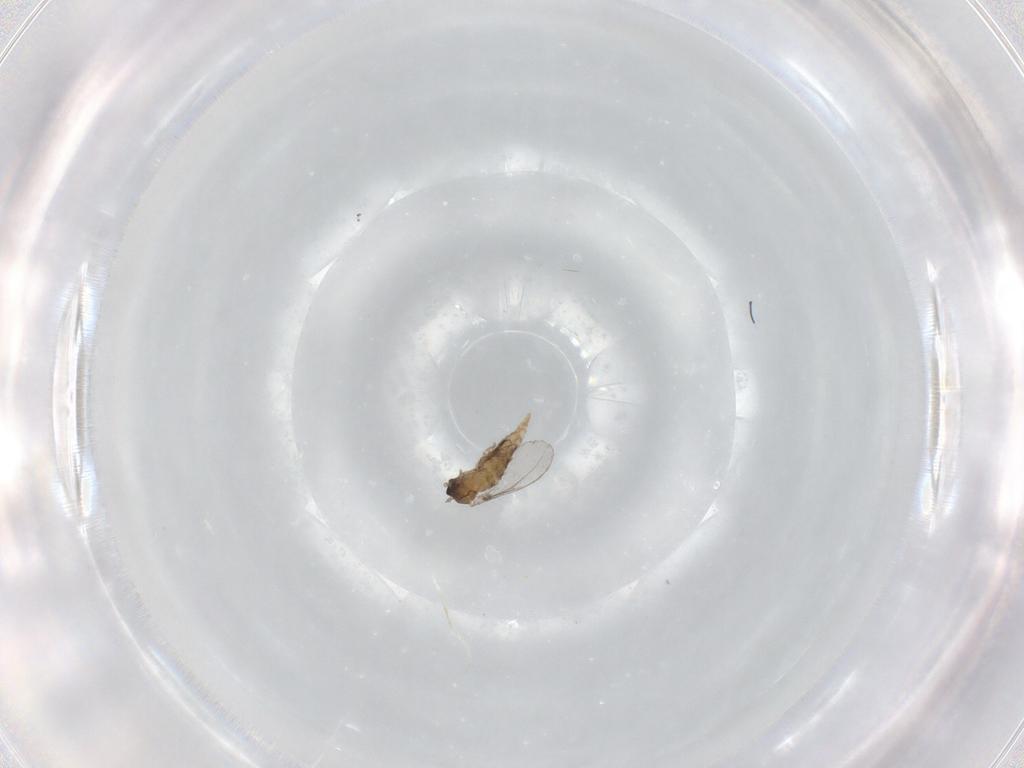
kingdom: Animalia
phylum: Arthropoda
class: Insecta
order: Diptera
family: Cecidomyiidae
